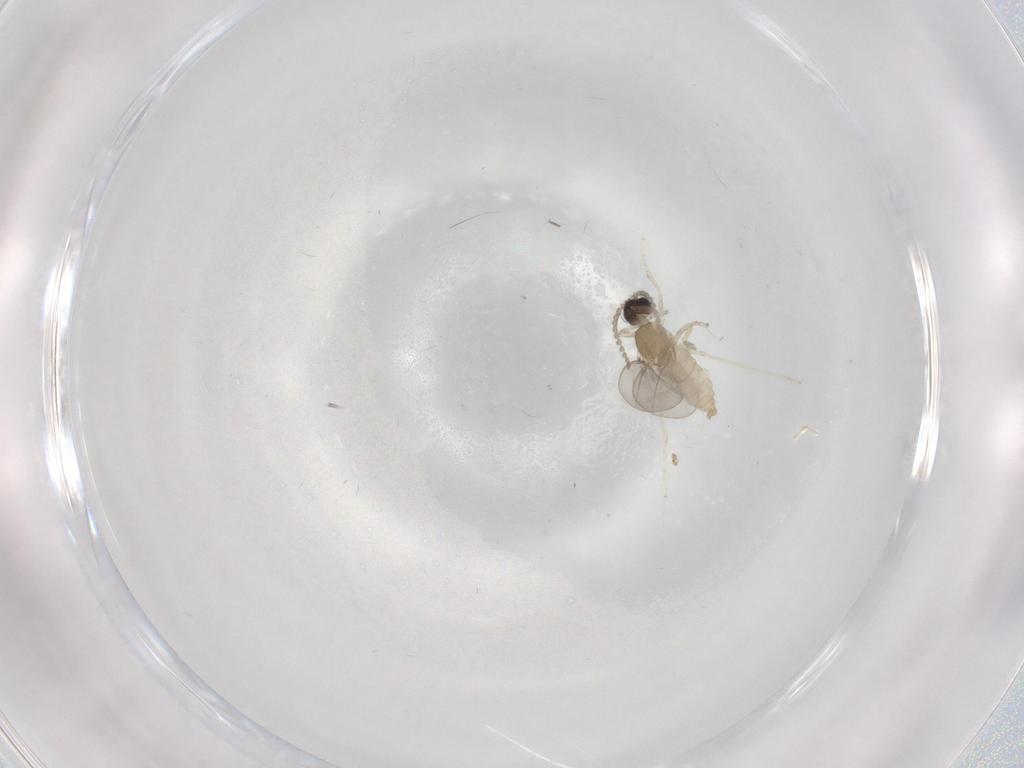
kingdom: Animalia
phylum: Arthropoda
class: Insecta
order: Diptera
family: Cecidomyiidae
